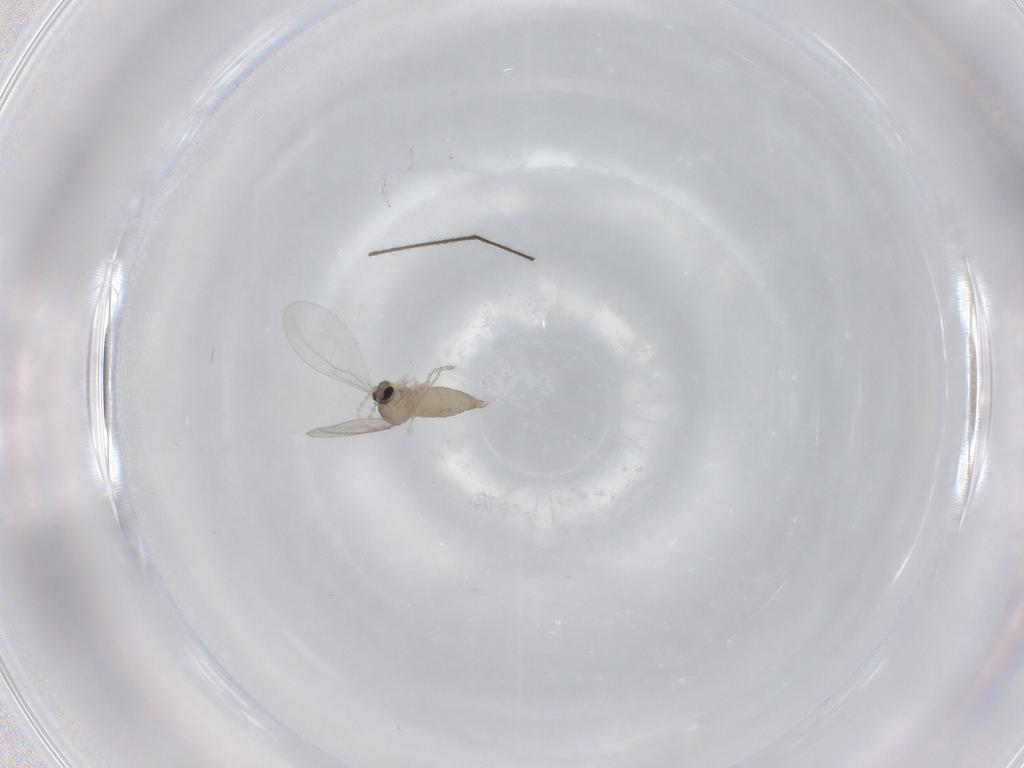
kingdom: Animalia
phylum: Arthropoda
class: Insecta
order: Diptera
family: Cecidomyiidae
